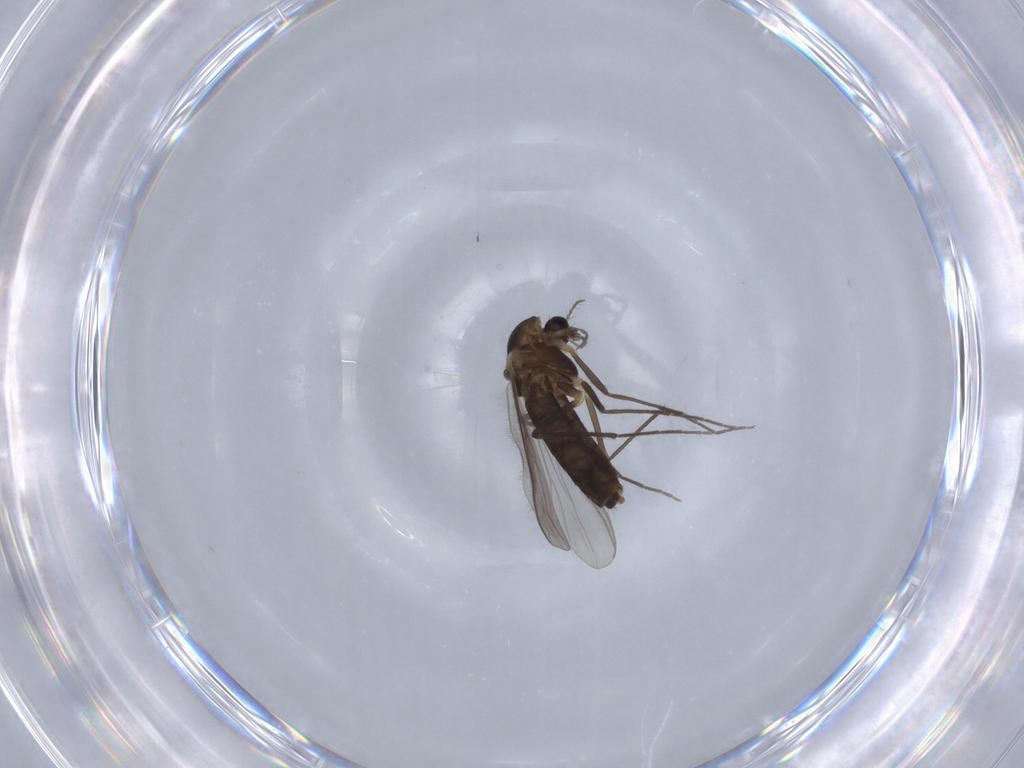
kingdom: Animalia
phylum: Arthropoda
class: Insecta
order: Diptera
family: Chironomidae
